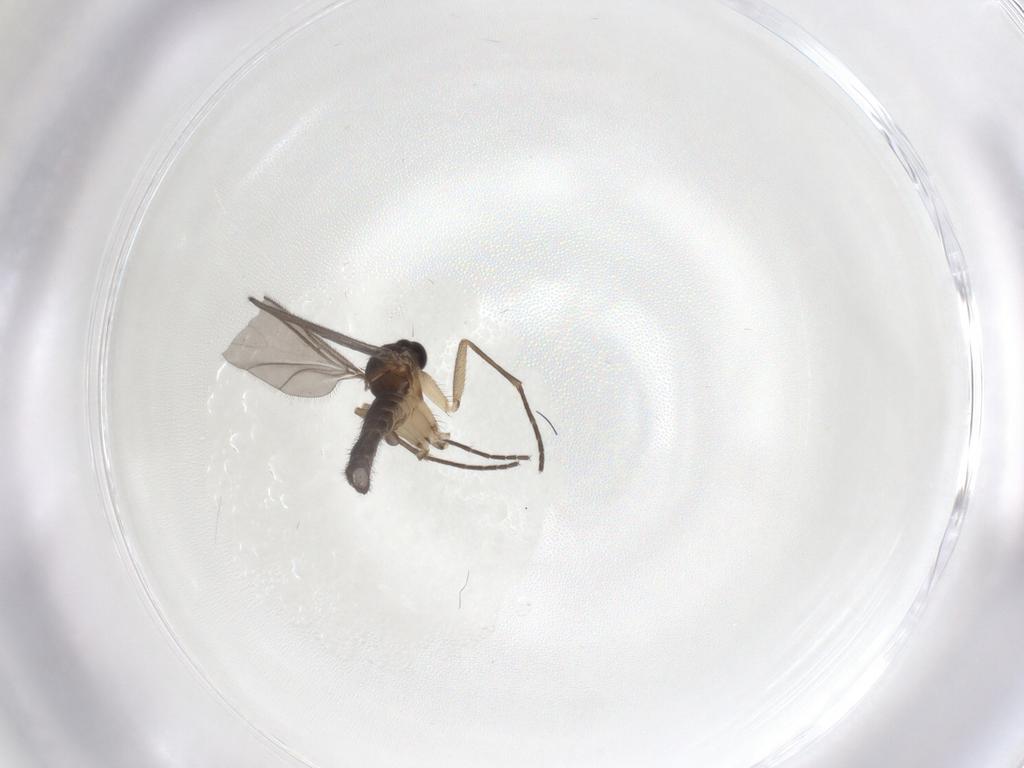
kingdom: Animalia
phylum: Arthropoda
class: Insecta
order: Diptera
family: Sciaridae
